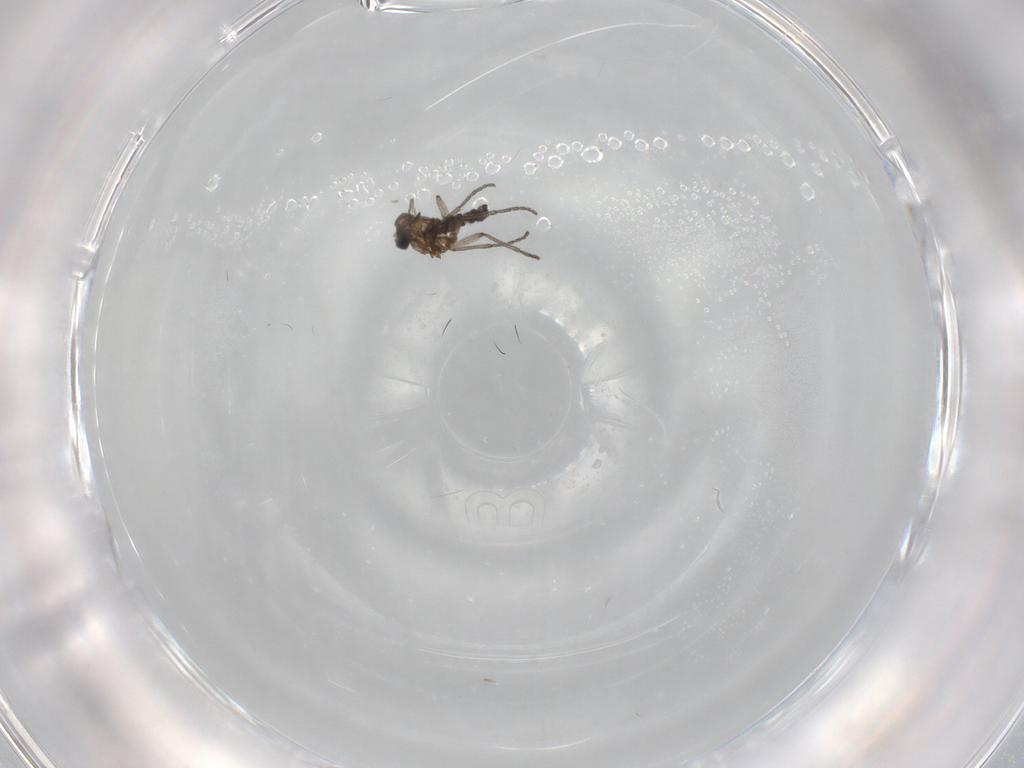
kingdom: Animalia
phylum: Arthropoda
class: Insecta
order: Diptera
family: Sciaridae
